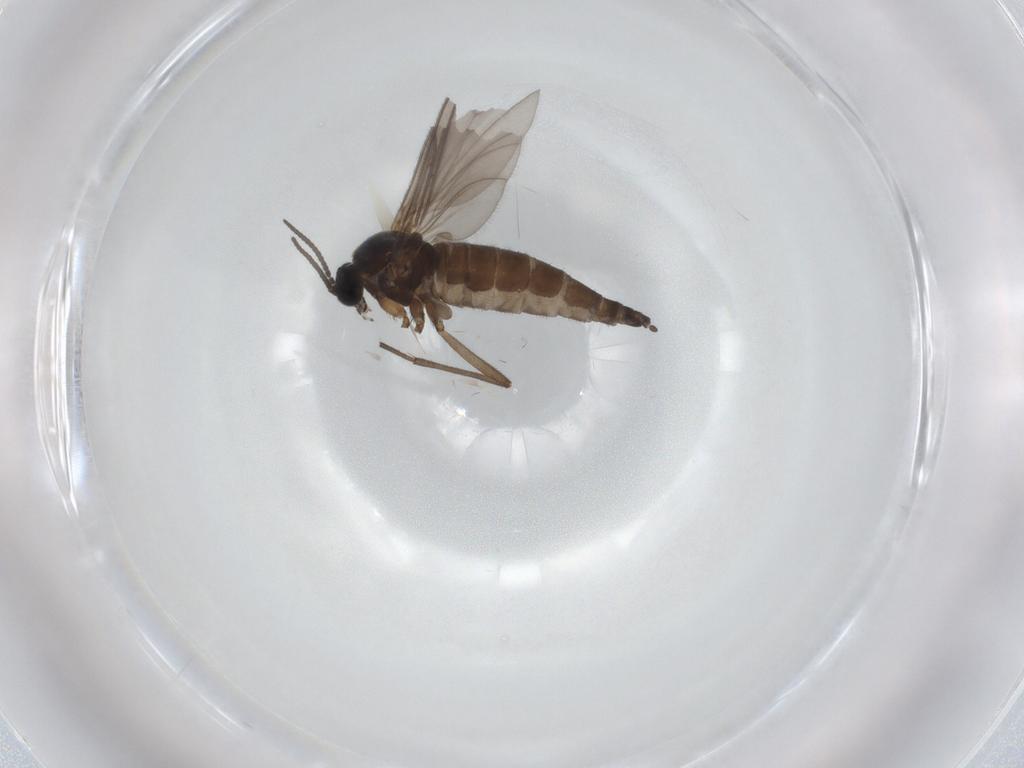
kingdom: Animalia
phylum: Arthropoda
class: Insecta
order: Diptera
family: Sciaridae
